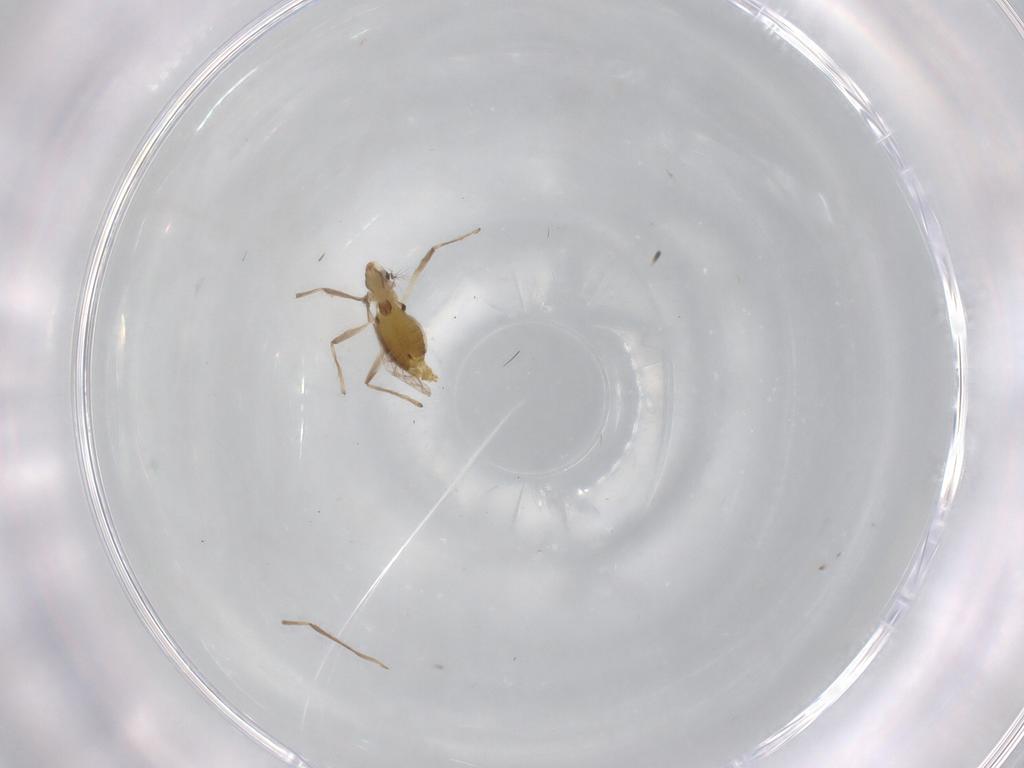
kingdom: Animalia
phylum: Arthropoda
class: Insecta
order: Diptera
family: Chironomidae
